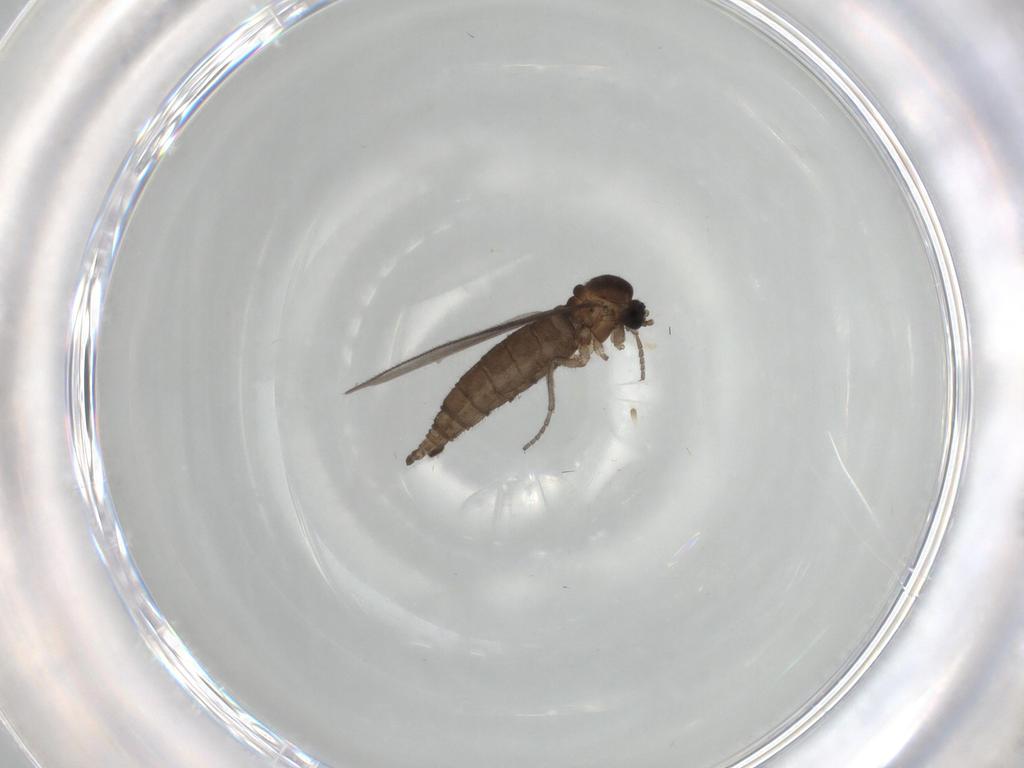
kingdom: Animalia
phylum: Arthropoda
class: Insecta
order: Diptera
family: Sciaridae
